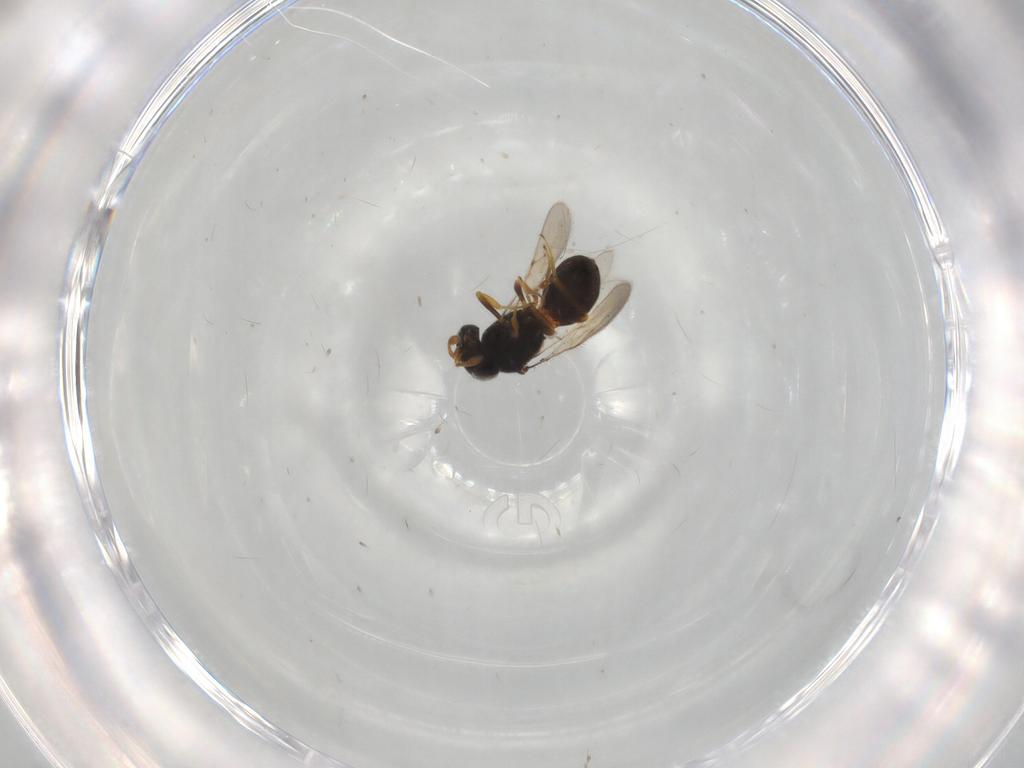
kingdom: Animalia
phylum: Arthropoda
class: Insecta
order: Hymenoptera
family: Scelionidae
